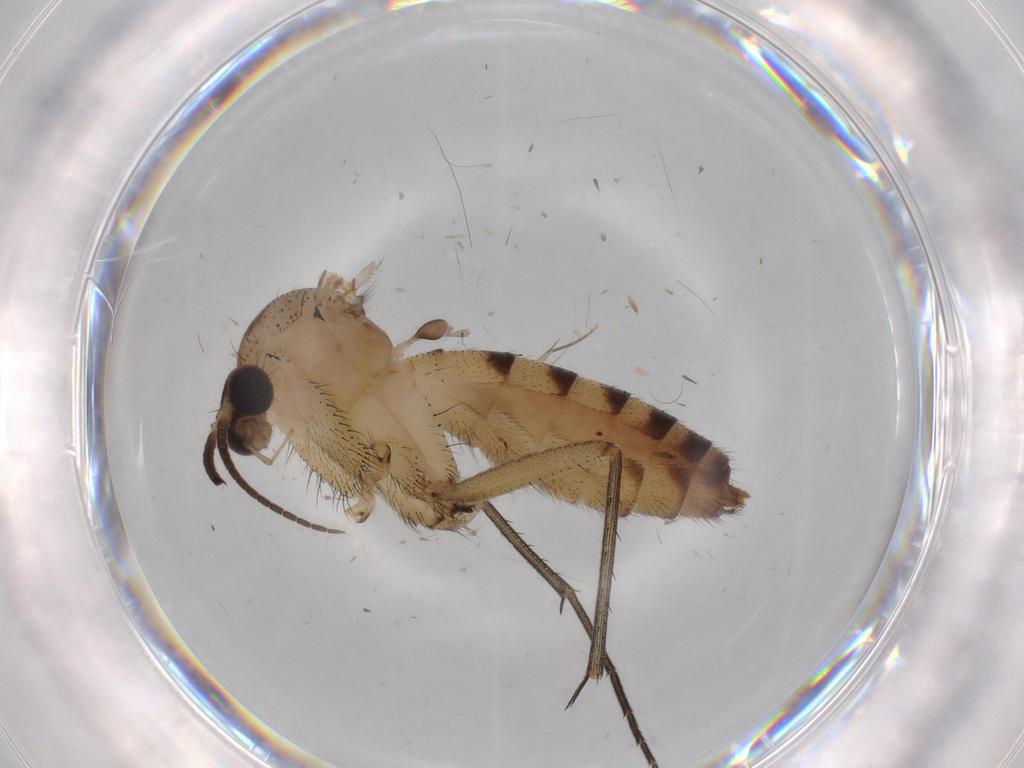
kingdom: Animalia
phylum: Arthropoda
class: Insecta
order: Diptera
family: Mycetophilidae
